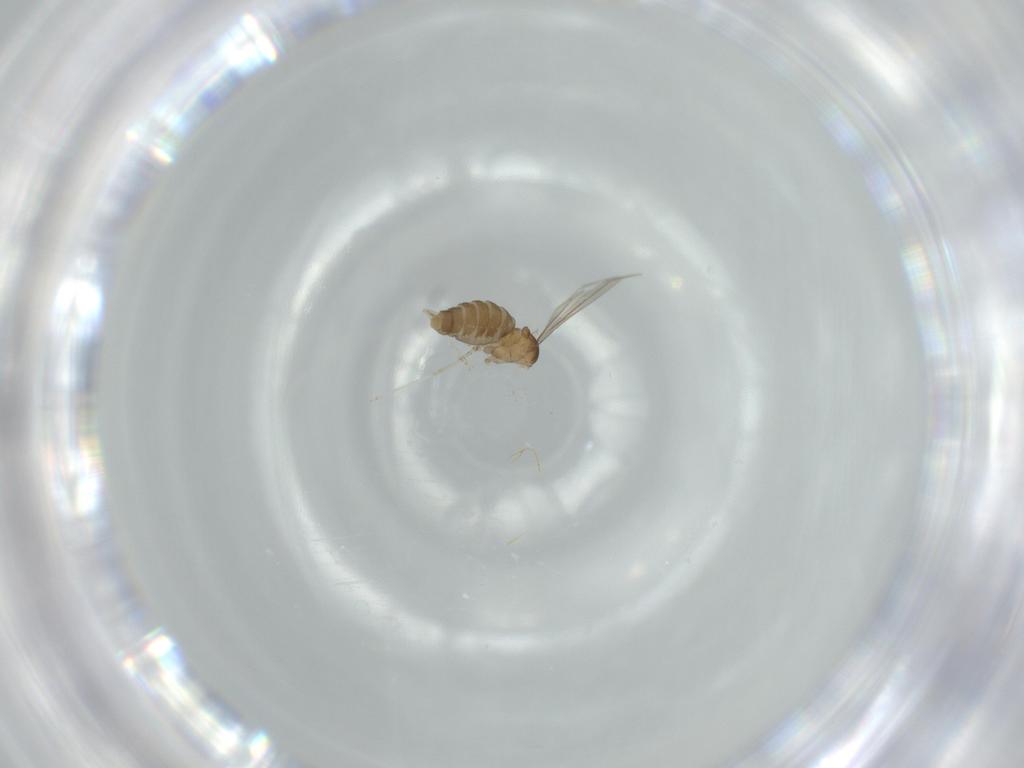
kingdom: Animalia
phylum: Arthropoda
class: Insecta
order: Diptera
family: Cecidomyiidae
